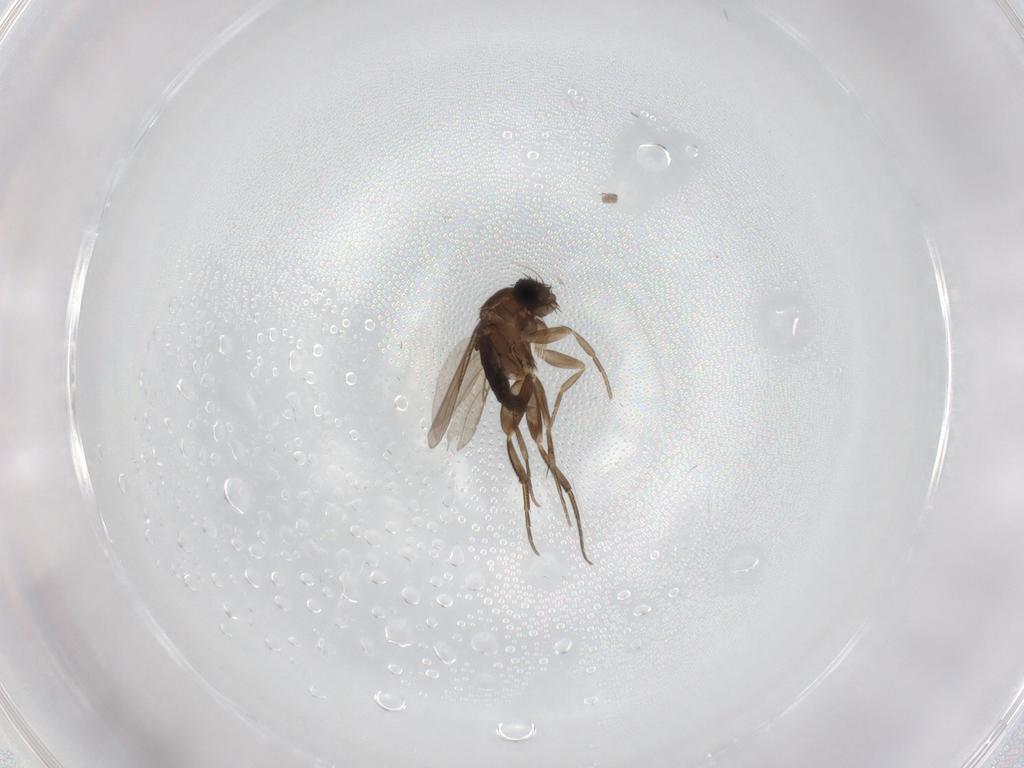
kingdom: Animalia
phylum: Arthropoda
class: Insecta
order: Diptera
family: Phoridae
